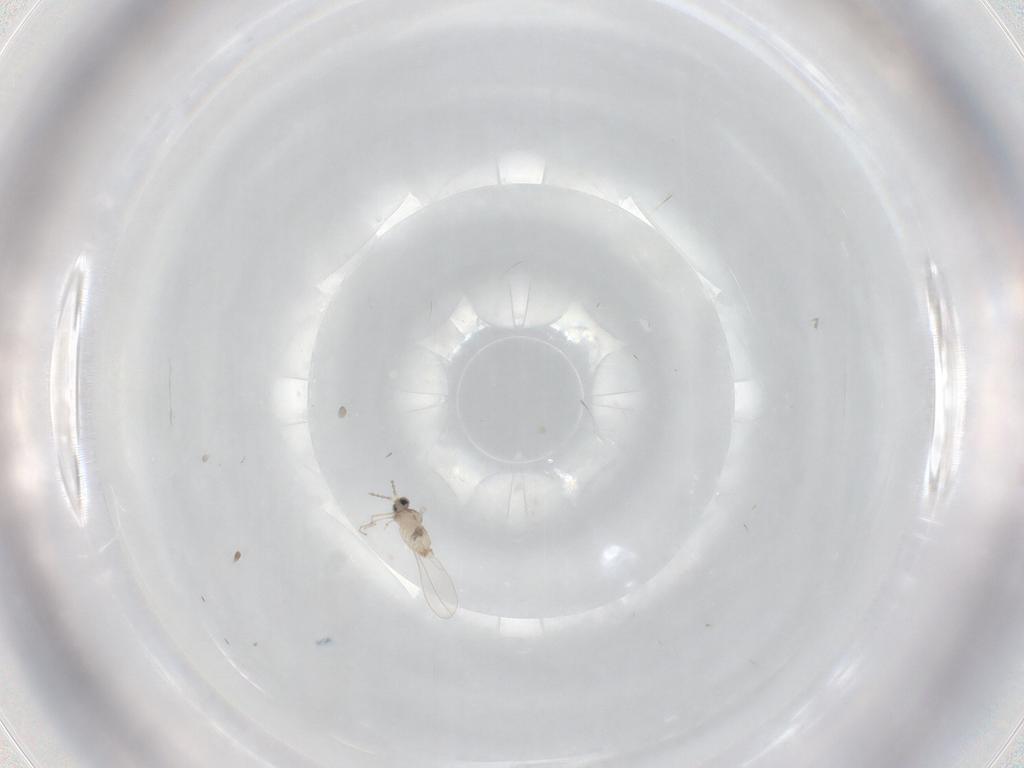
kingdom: Animalia
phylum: Arthropoda
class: Insecta
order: Diptera
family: Cecidomyiidae
